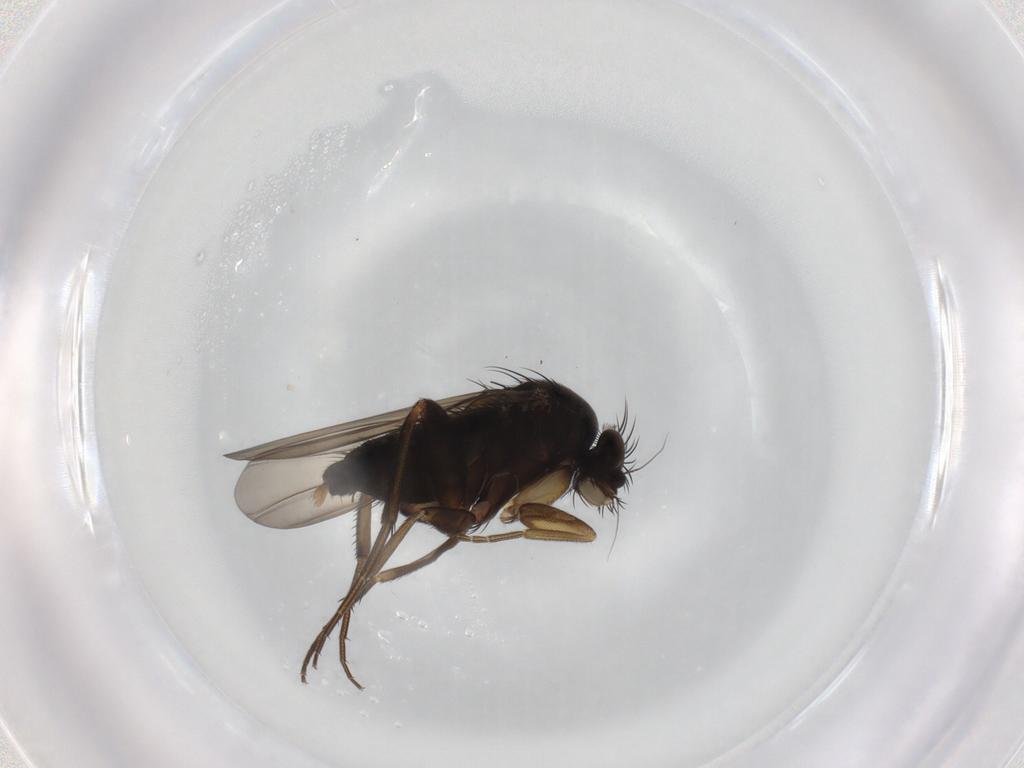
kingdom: Animalia
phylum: Arthropoda
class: Insecta
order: Diptera
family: Phoridae
